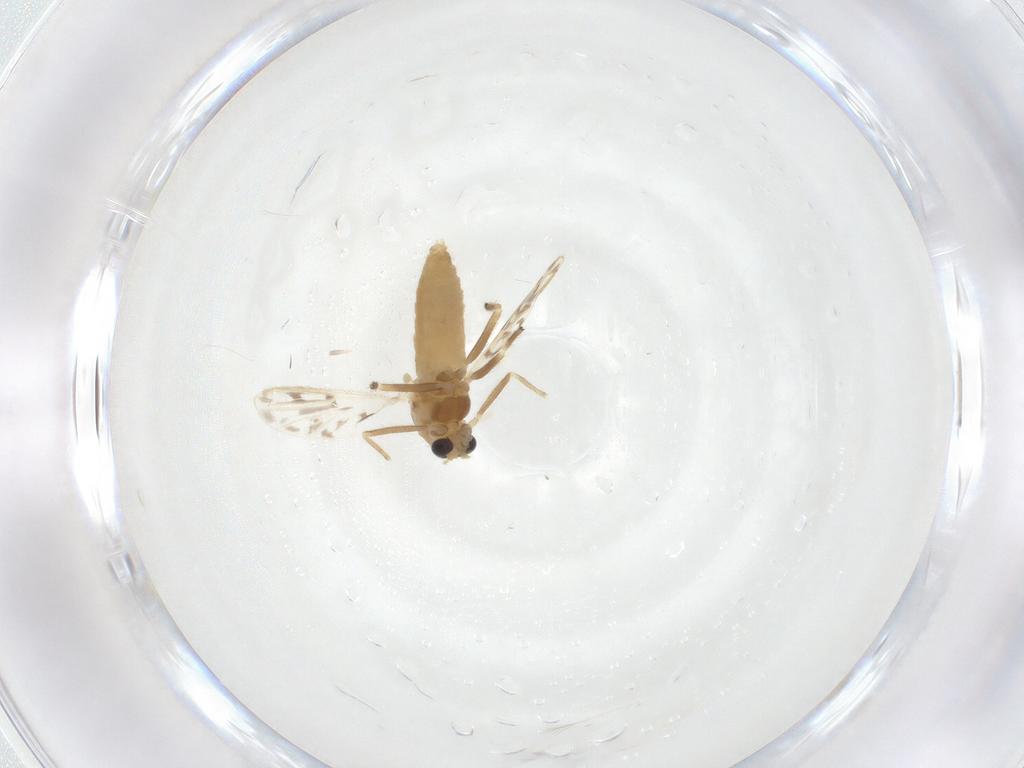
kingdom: Animalia
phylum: Arthropoda
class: Insecta
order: Diptera
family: Chironomidae
